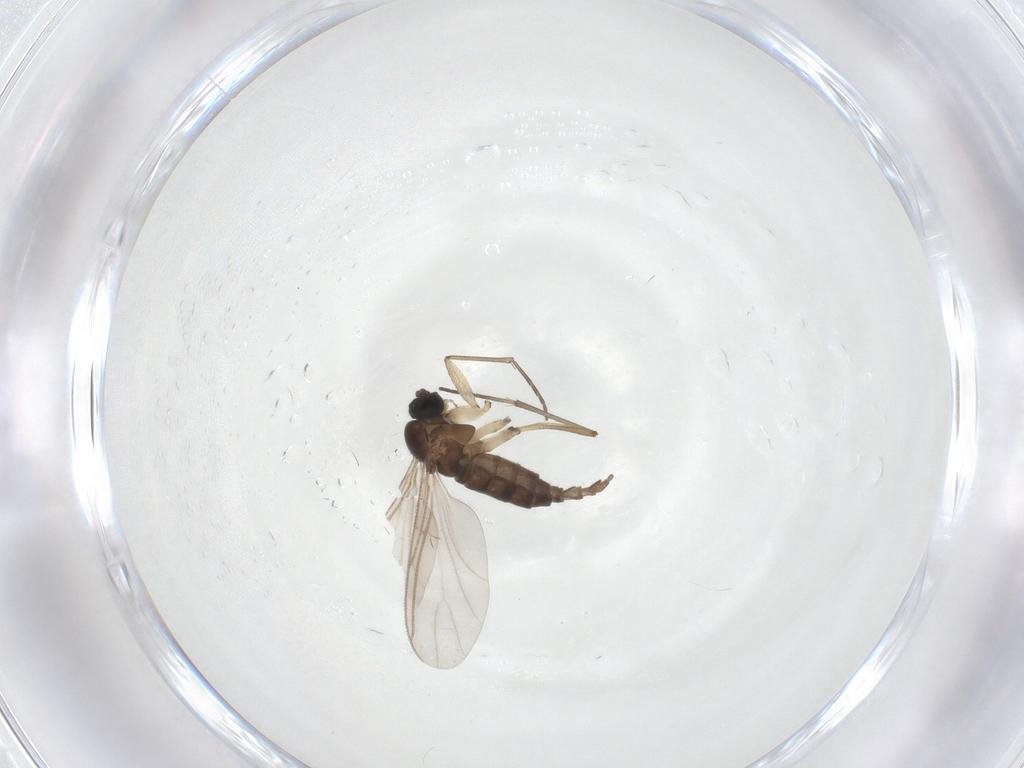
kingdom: Animalia
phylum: Arthropoda
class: Insecta
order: Diptera
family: Sciaridae
